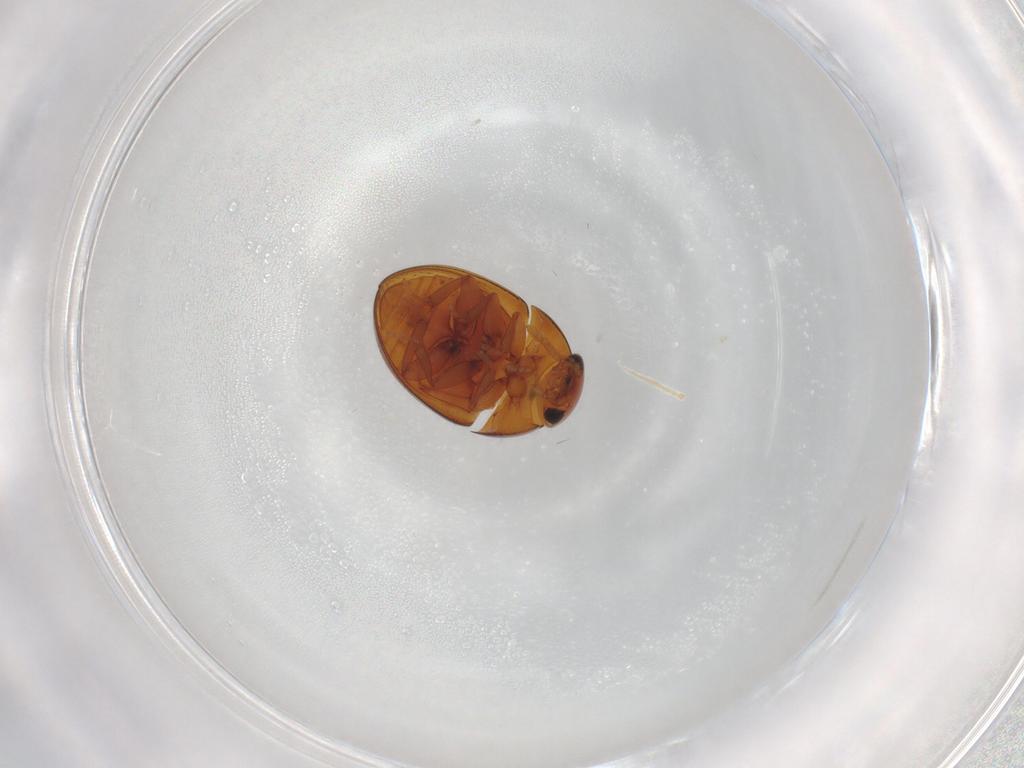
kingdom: Animalia
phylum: Arthropoda
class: Insecta
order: Coleoptera
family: Phalacridae
